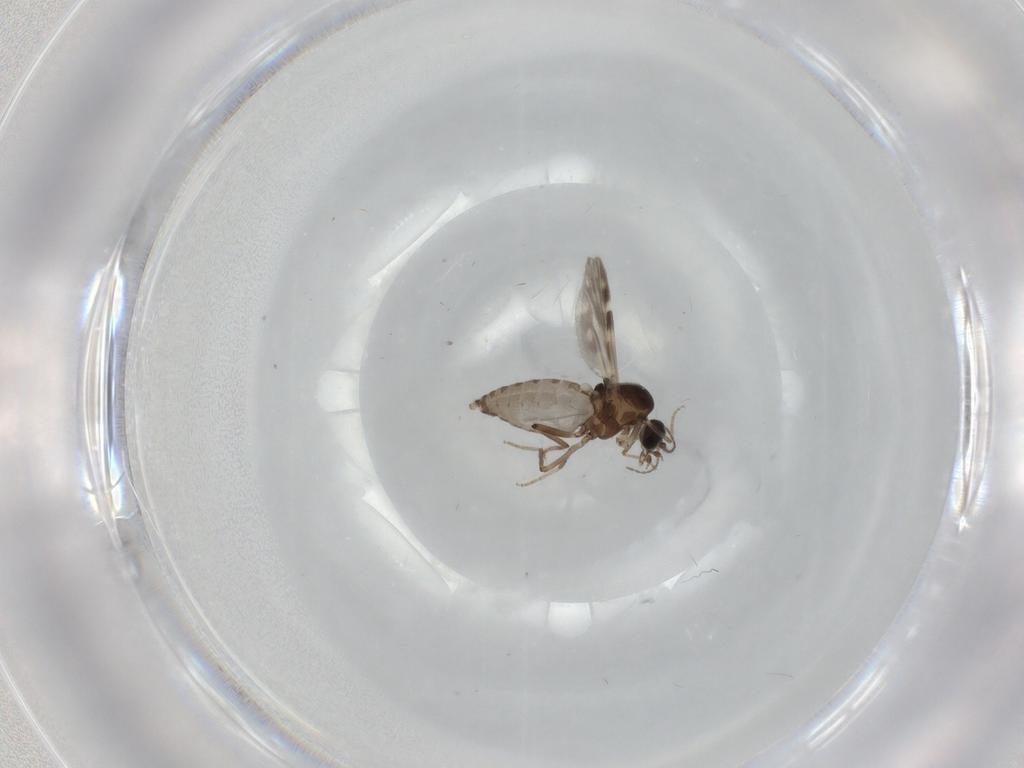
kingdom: Animalia
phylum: Arthropoda
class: Insecta
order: Diptera
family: Ceratopogonidae
